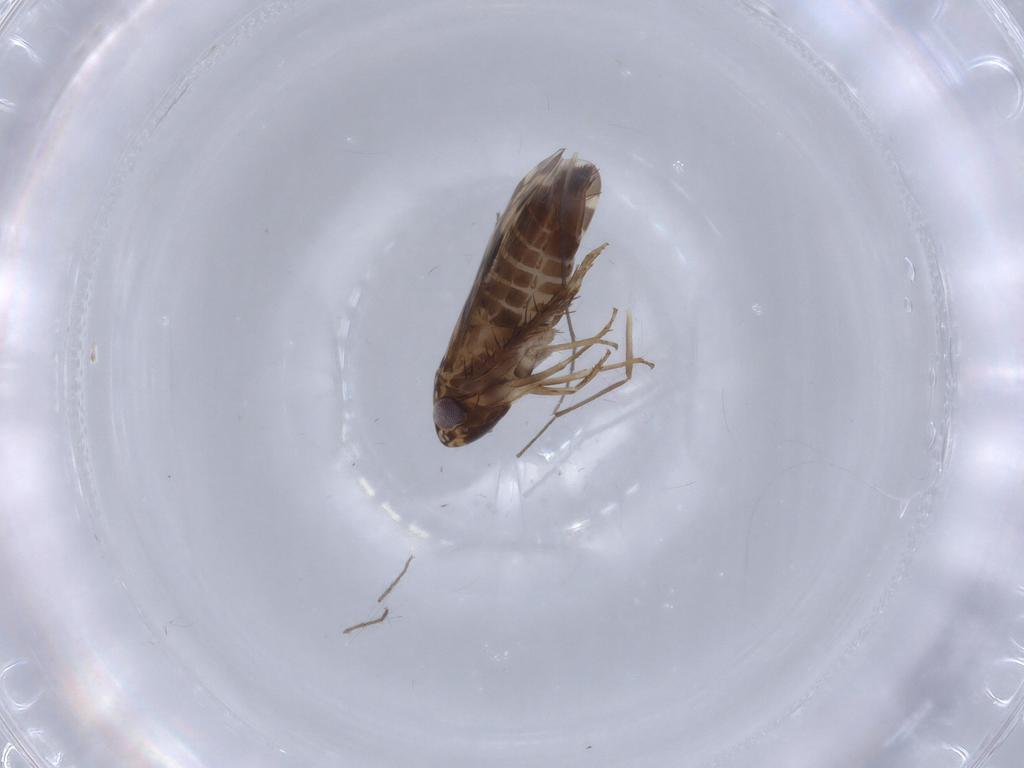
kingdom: Animalia
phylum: Arthropoda
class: Insecta
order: Hemiptera
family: Cicadellidae
